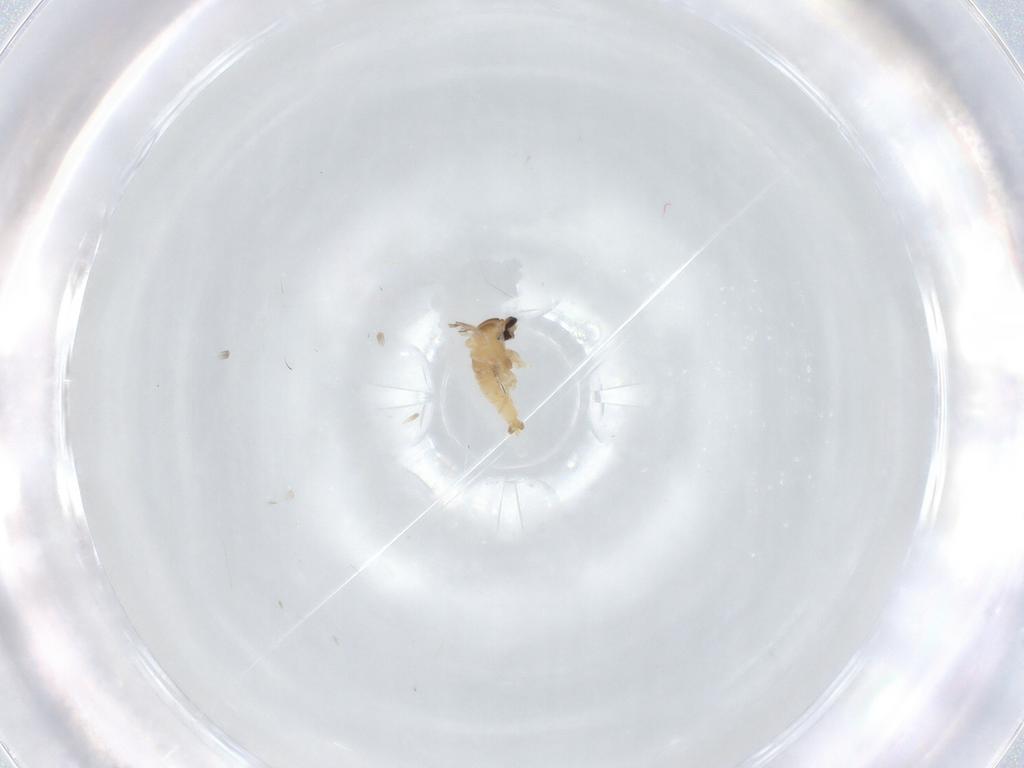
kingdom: Animalia
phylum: Arthropoda
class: Insecta
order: Diptera
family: Cecidomyiidae
